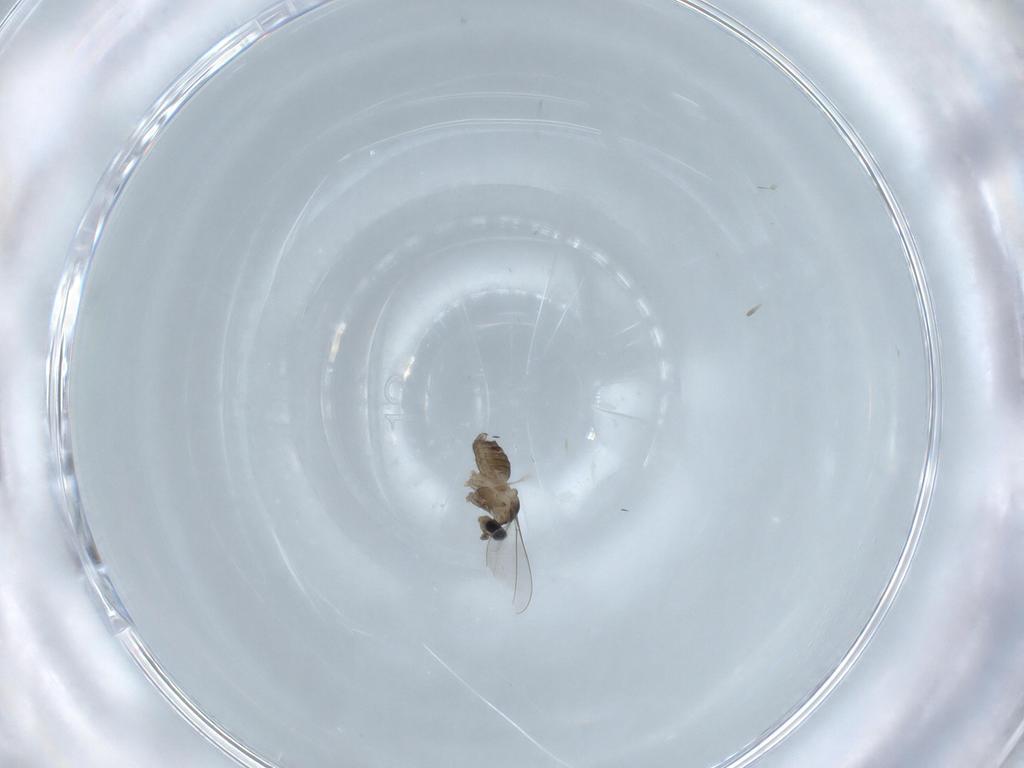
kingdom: Animalia
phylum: Arthropoda
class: Insecta
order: Diptera
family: Cecidomyiidae
